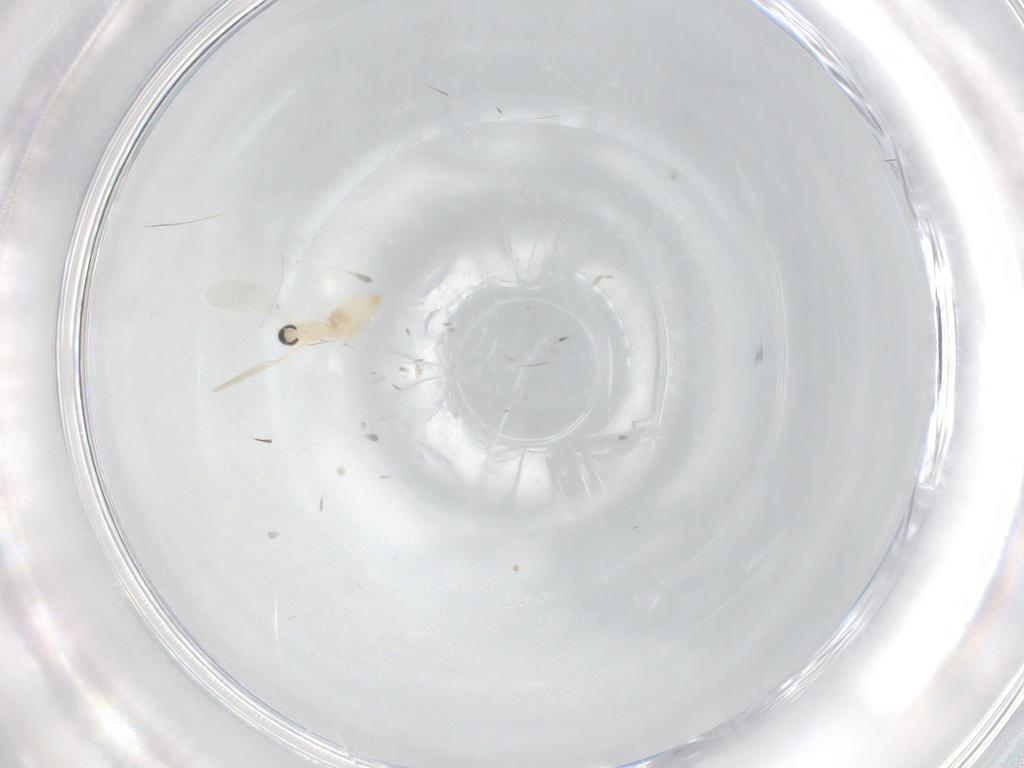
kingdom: Animalia
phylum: Arthropoda
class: Insecta
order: Diptera
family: Cecidomyiidae
